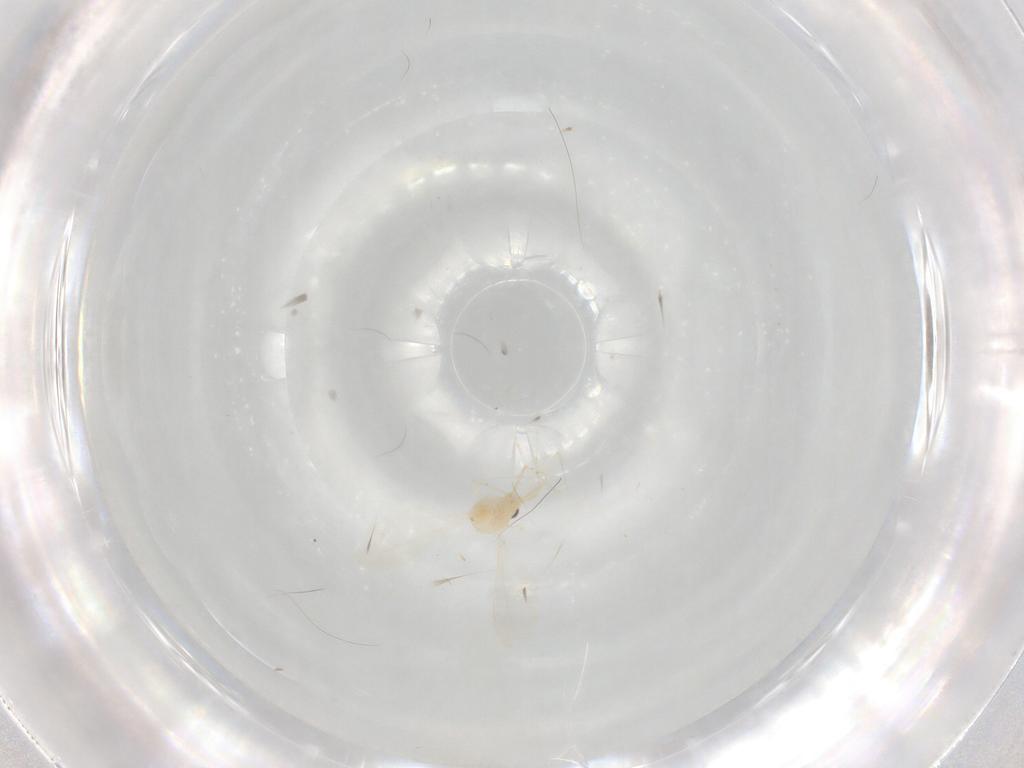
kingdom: Animalia
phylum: Arthropoda
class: Insecta
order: Diptera
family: Cecidomyiidae
